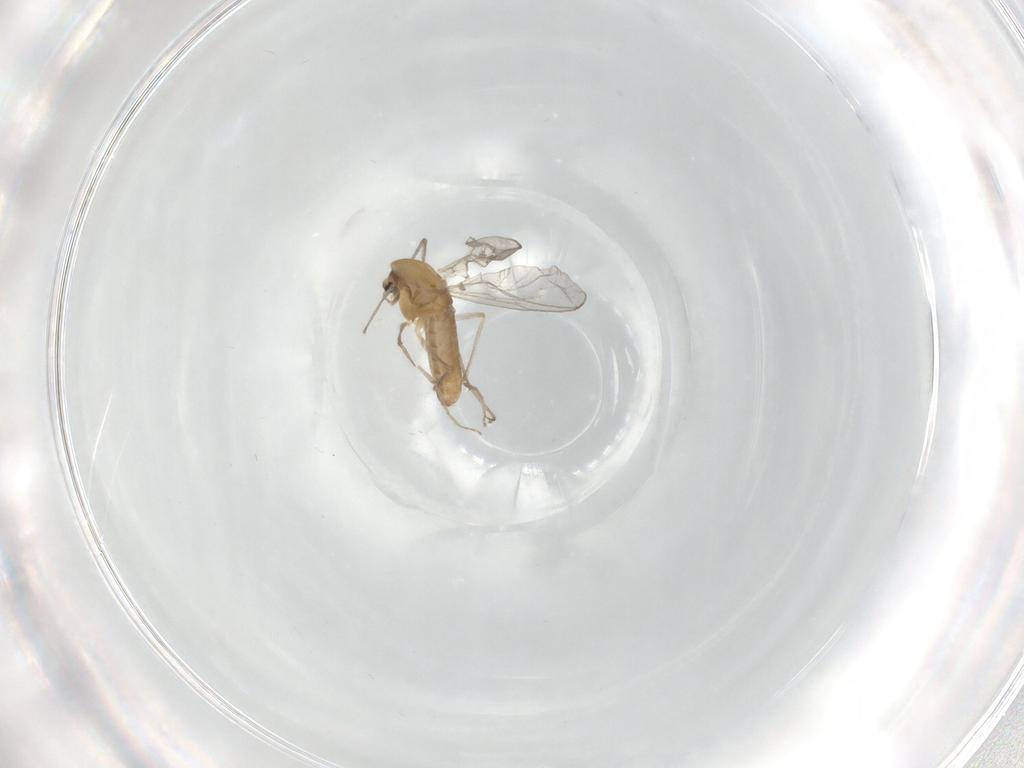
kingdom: Animalia
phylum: Arthropoda
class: Insecta
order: Diptera
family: Chironomidae
